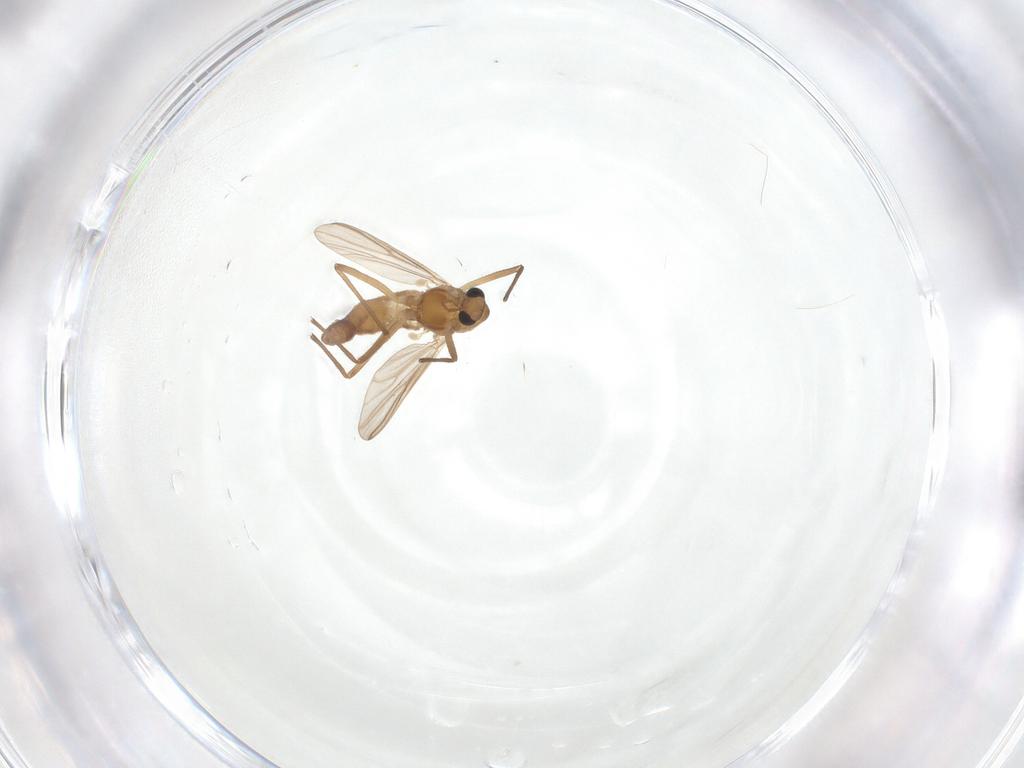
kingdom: Animalia
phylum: Arthropoda
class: Insecta
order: Diptera
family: Chironomidae
